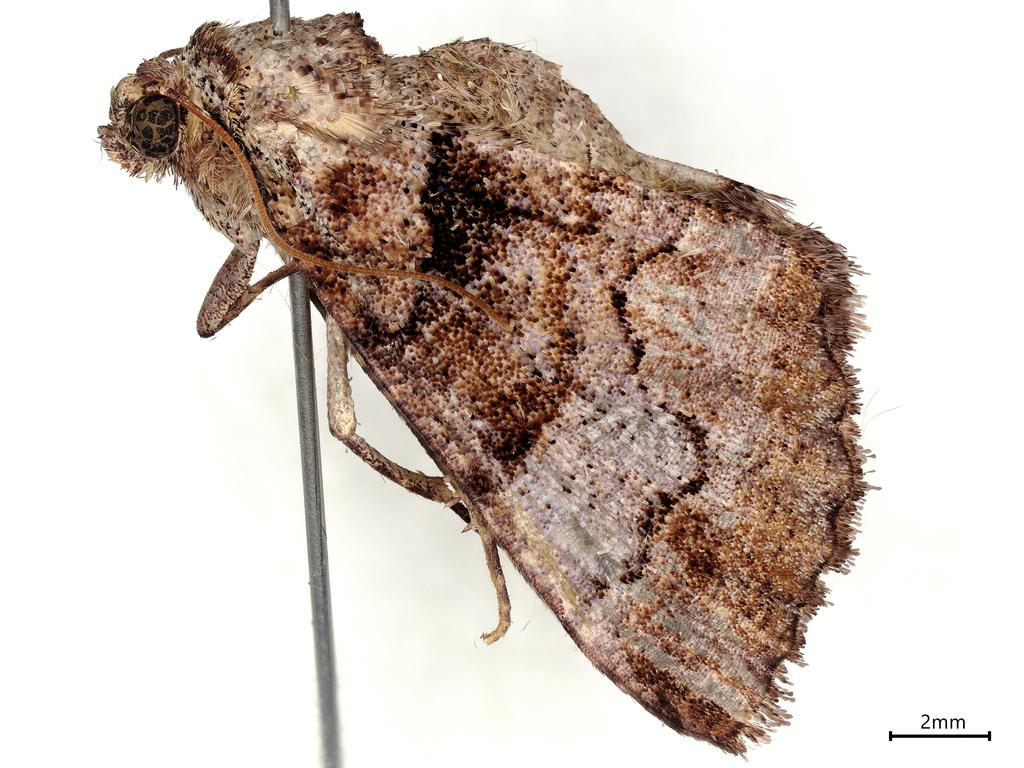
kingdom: Animalia
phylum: Arthropoda
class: Insecta
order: Lepidoptera
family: Geometridae
